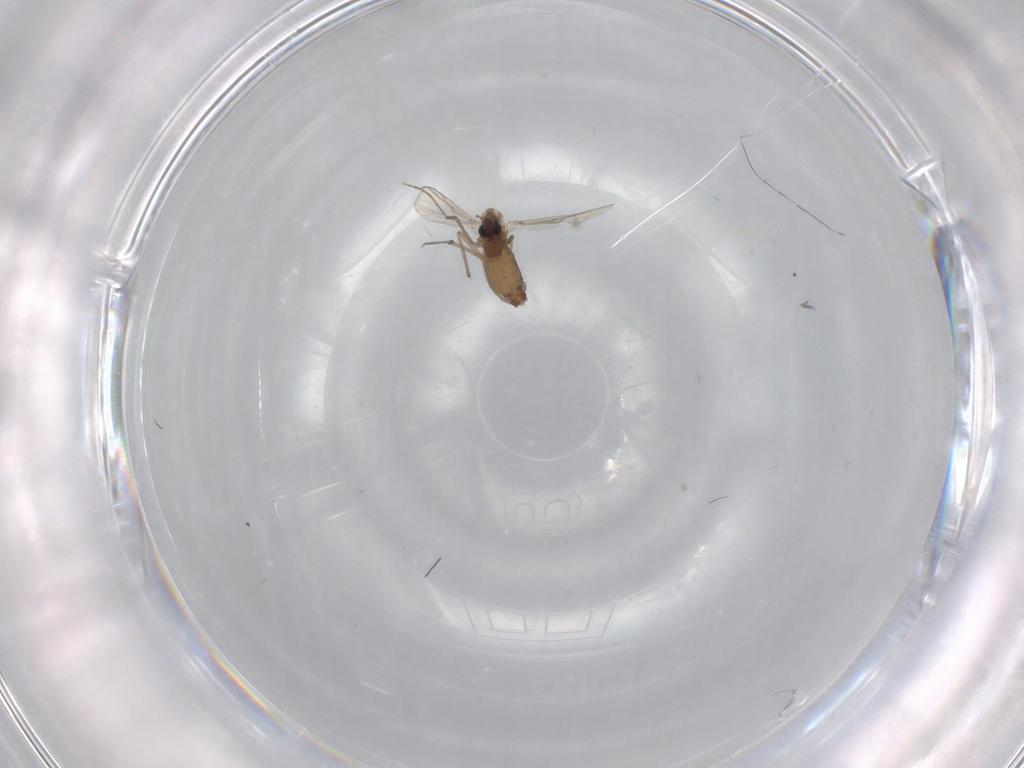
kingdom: Animalia
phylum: Arthropoda
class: Insecta
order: Diptera
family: Chironomidae
